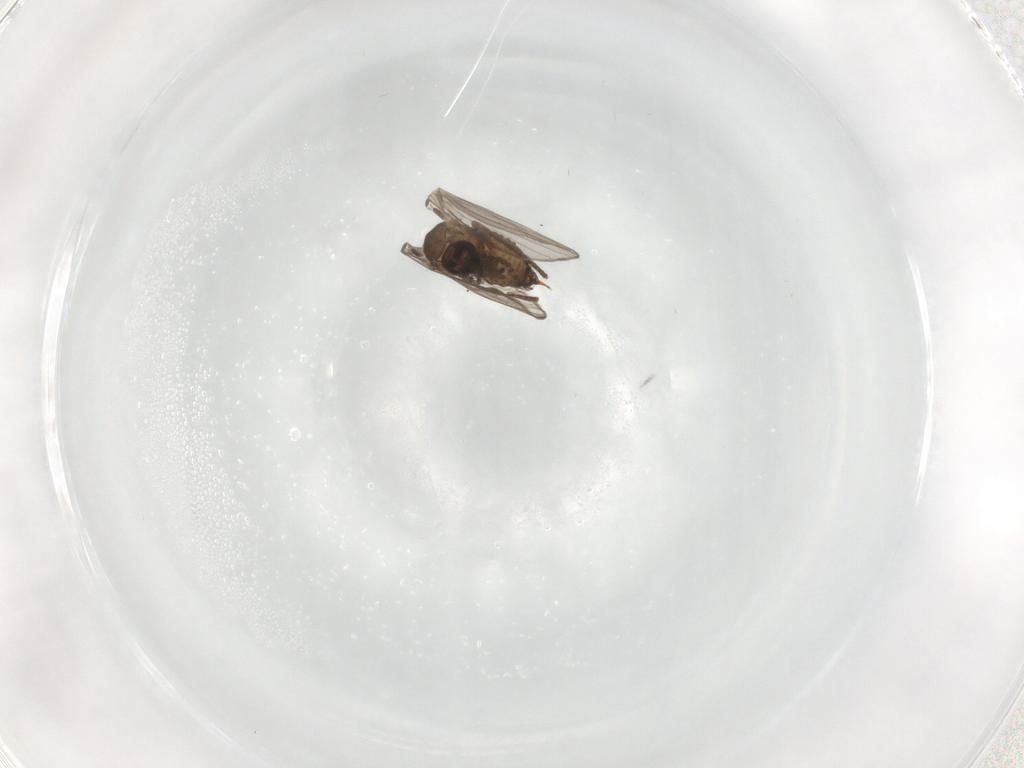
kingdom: Animalia
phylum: Arthropoda
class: Insecta
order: Diptera
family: Psychodidae
